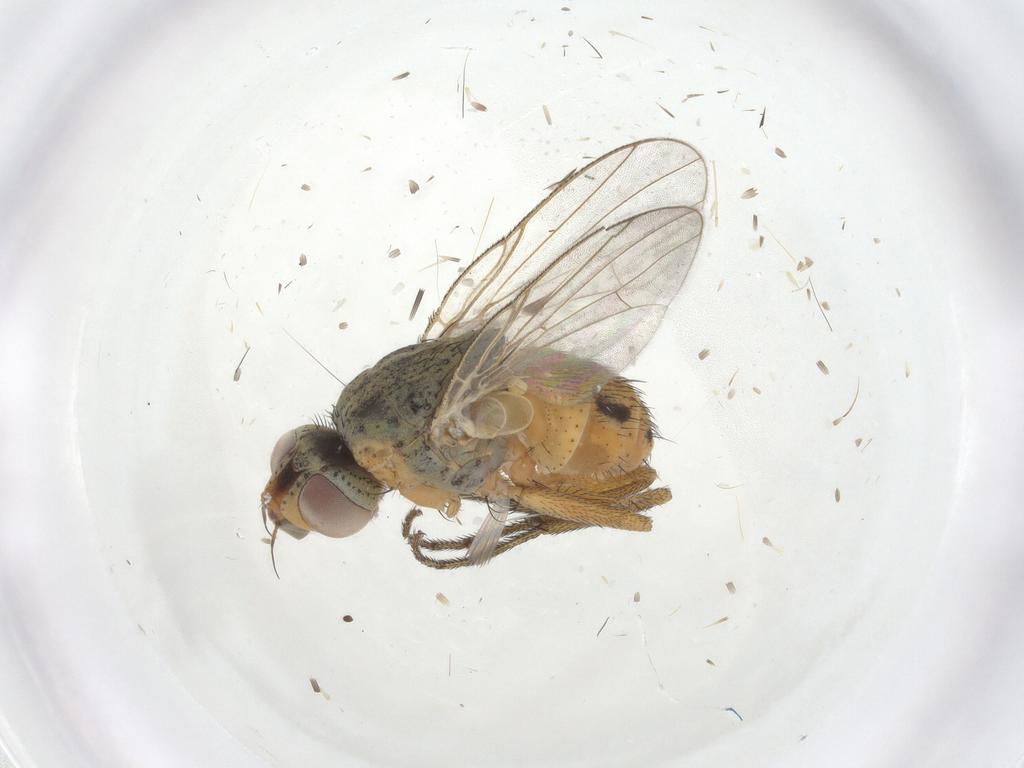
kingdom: Animalia
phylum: Arthropoda
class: Insecta
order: Diptera
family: Muscidae
